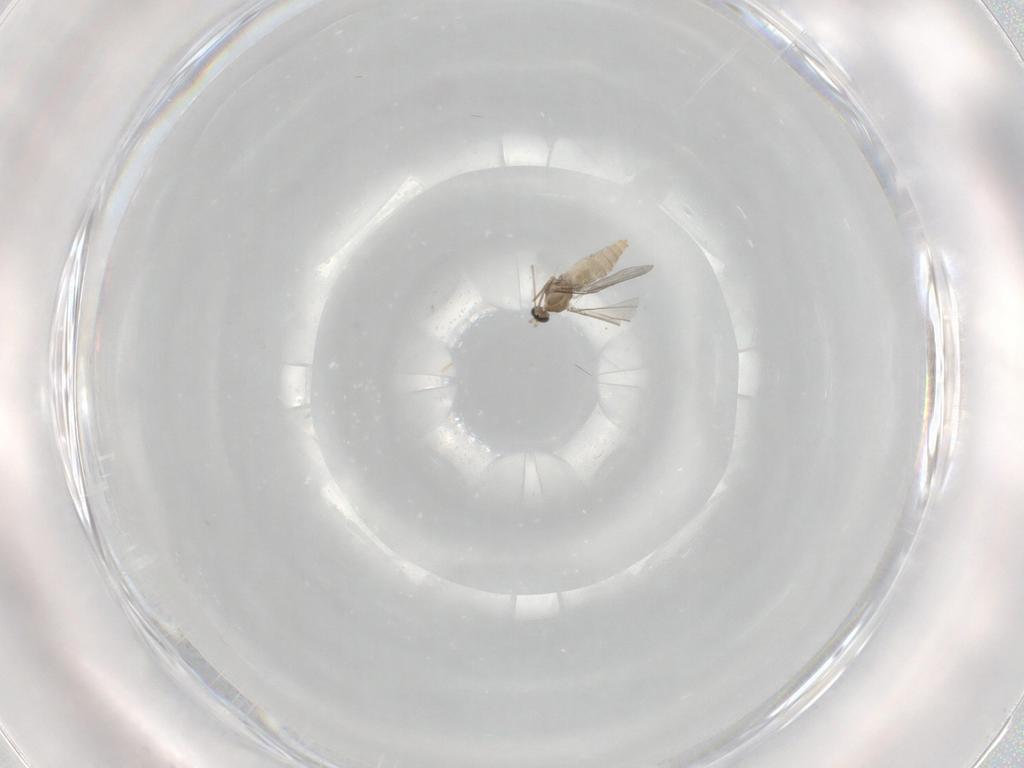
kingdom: Animalia
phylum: Arthropoda
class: Insecta
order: Diptera
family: Cecidomyiidae
